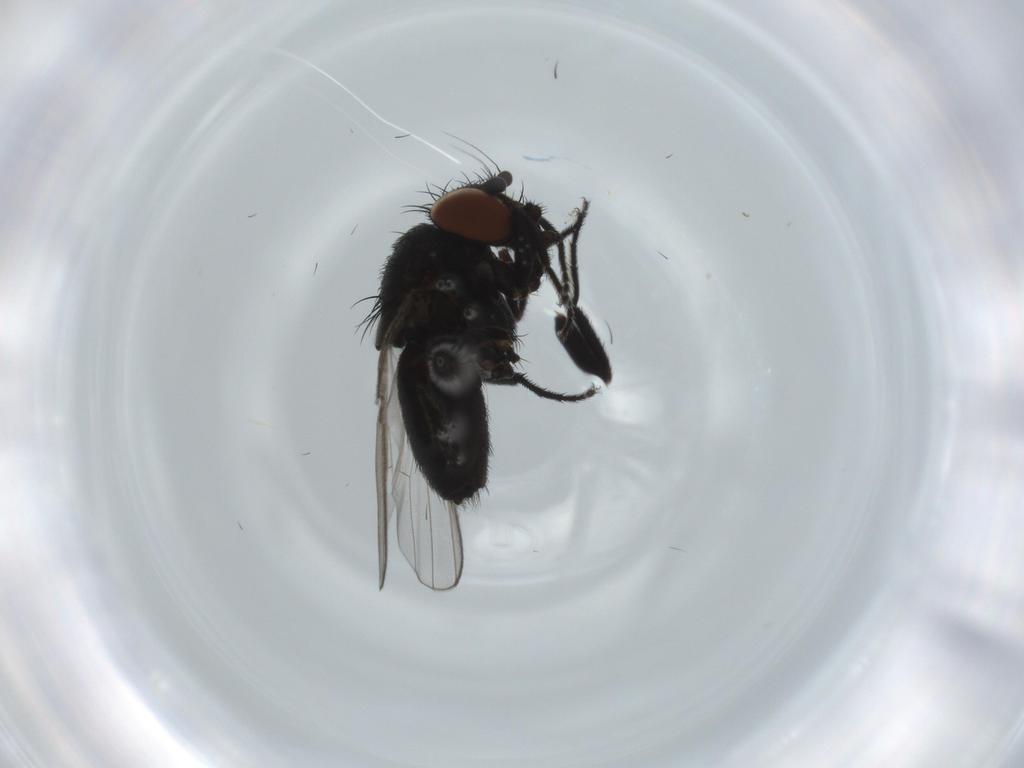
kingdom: Animalia
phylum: Arthropoda
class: Insecta
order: Diptera
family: Milichiidae
